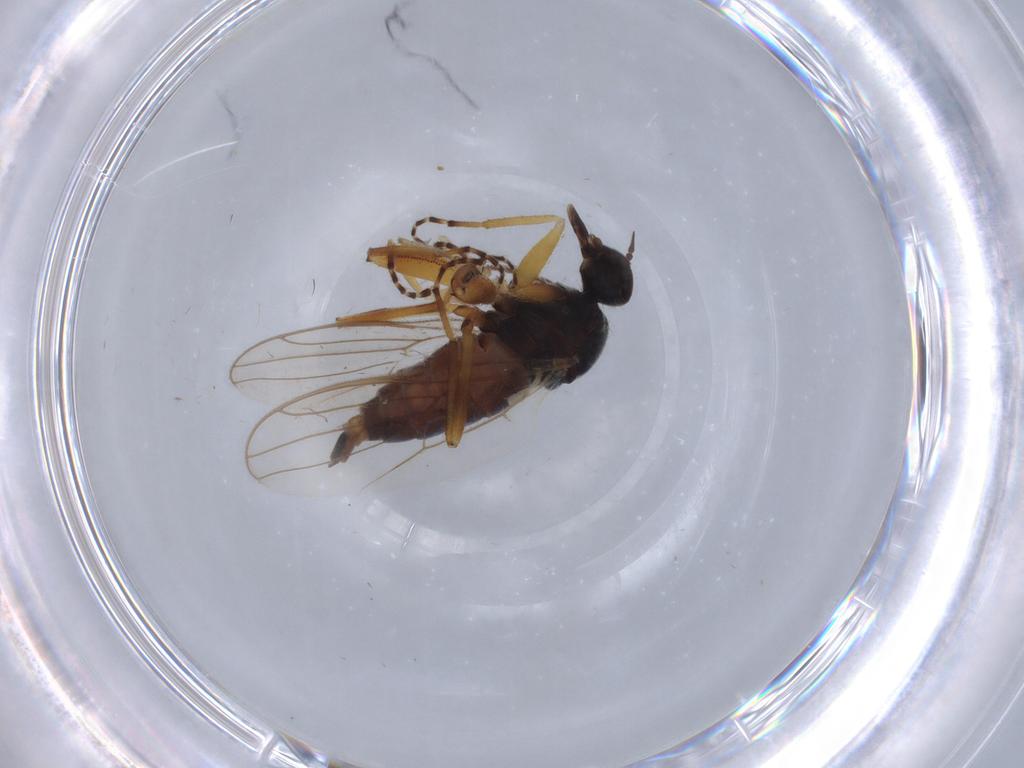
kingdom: Animalia
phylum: Arthropoda
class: Insecta
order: Diptera
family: Hybotidae
